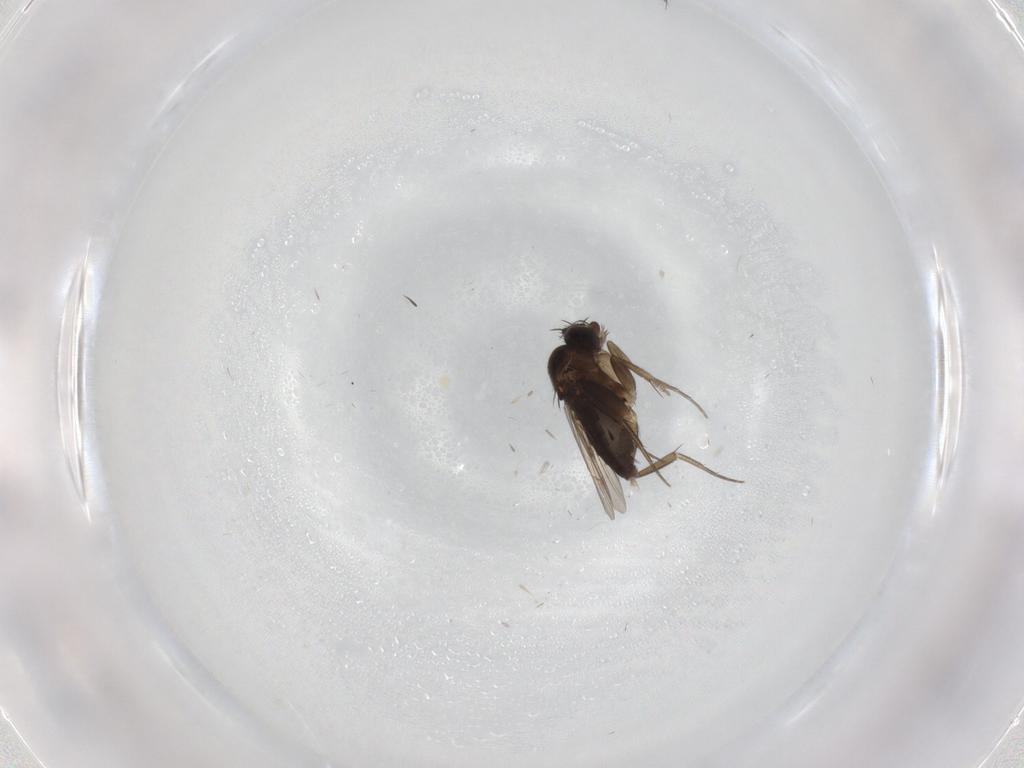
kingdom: Animalia
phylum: Arthropoda
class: Insecta
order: Diptera
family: Phoridae
